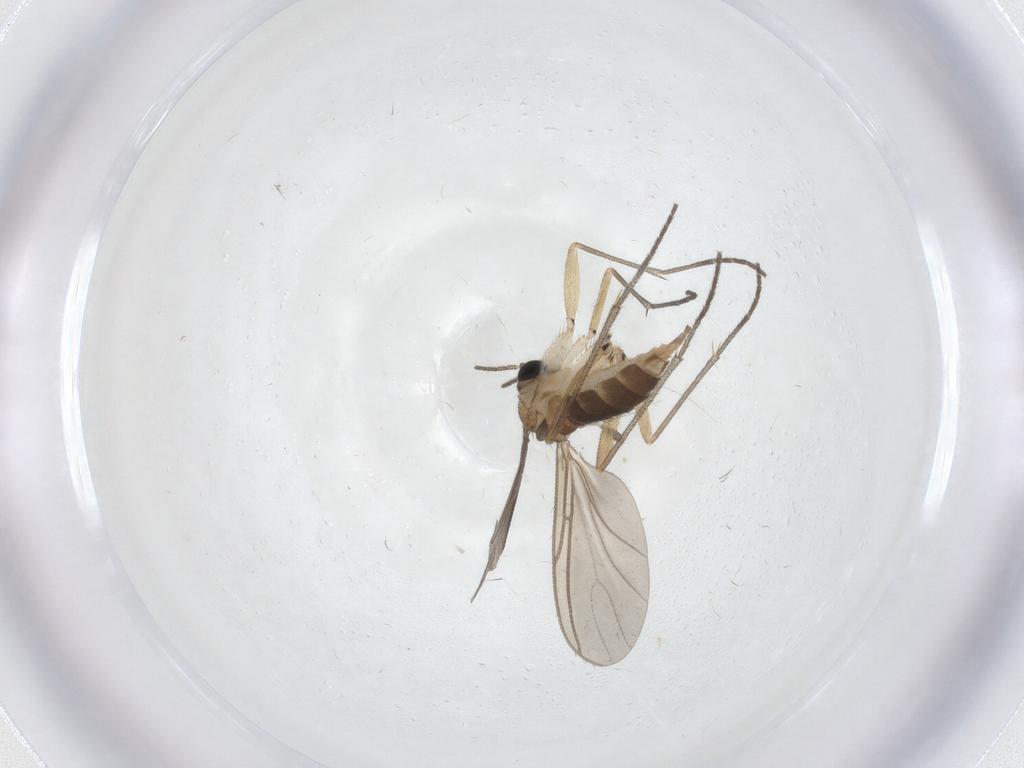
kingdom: Animalia
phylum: Arthropoda
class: Insecta
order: Diptera
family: Sciaridae
